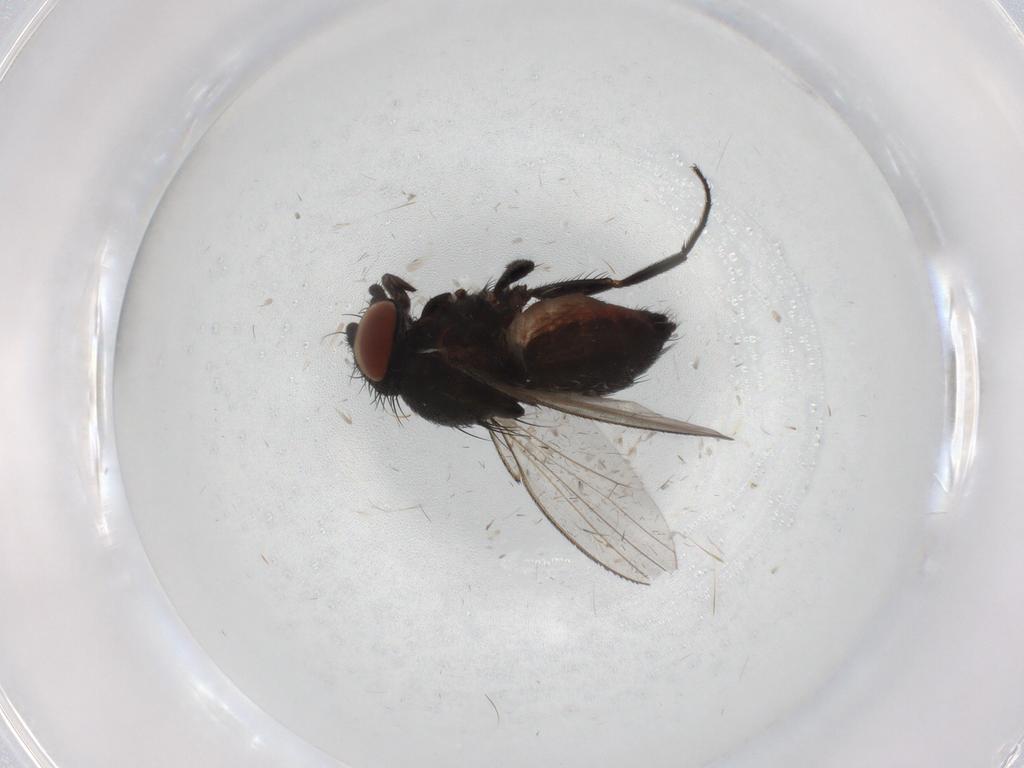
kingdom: Animalia
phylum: Arthropoda
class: Insecta
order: Diptera
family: Milichiidae
